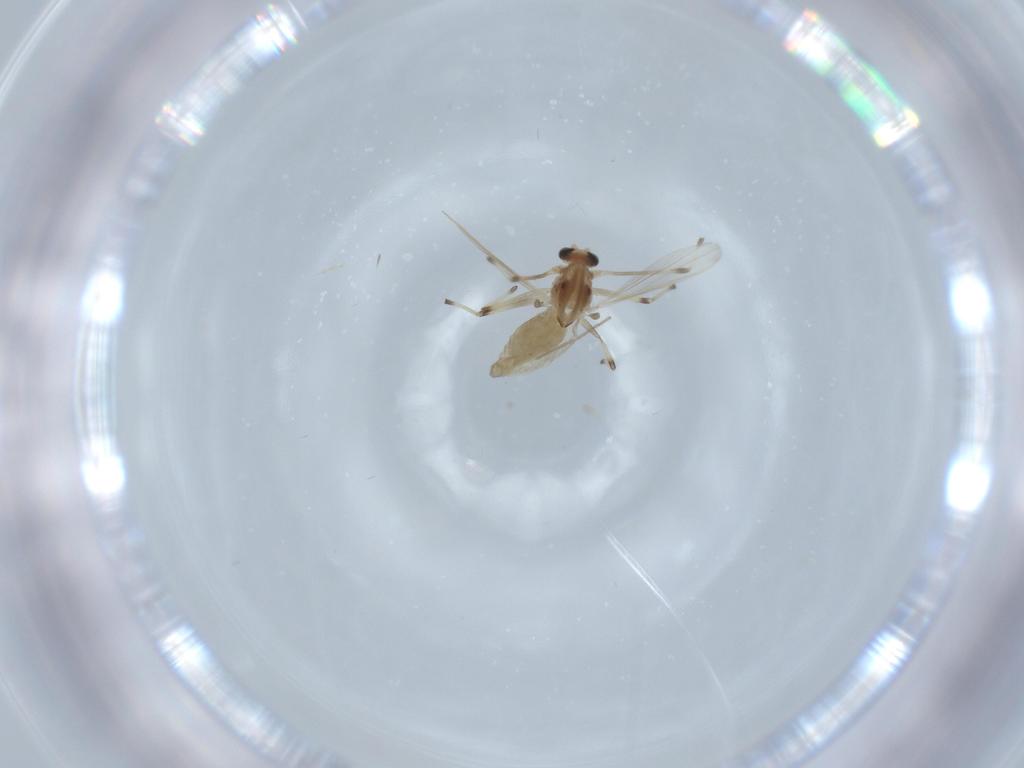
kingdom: Animalia
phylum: Arthropoda
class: Insecta
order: Diptera
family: Chironomidae
